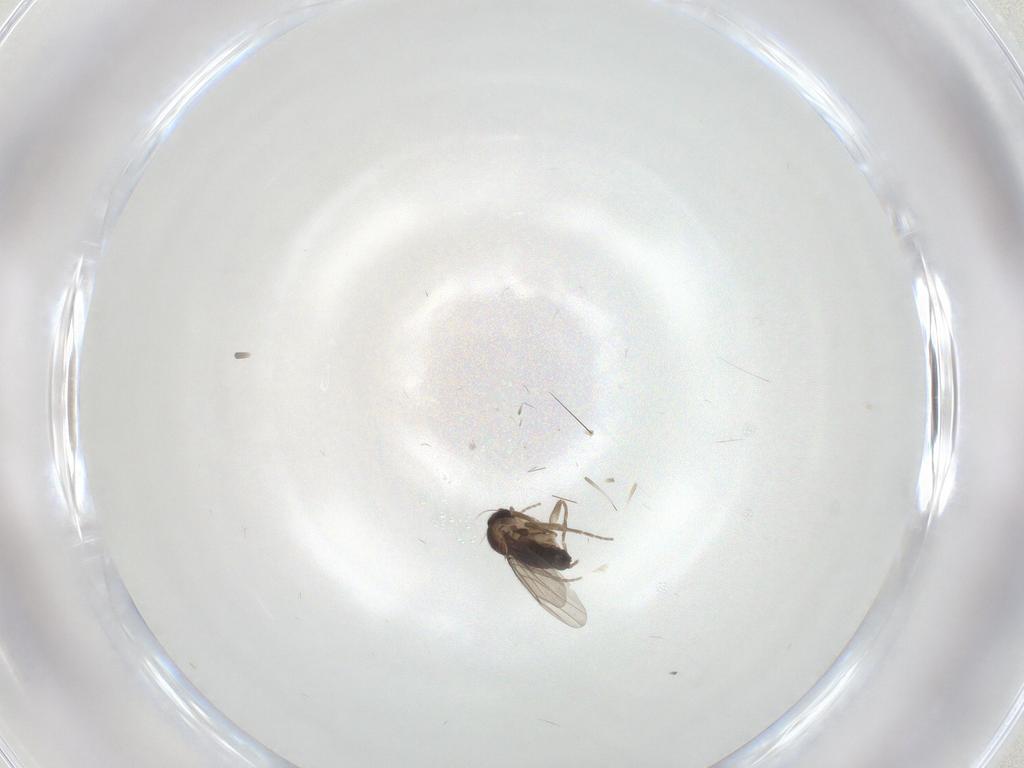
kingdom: Animalia
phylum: Arthropoda
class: Insecta
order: Diptera
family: Phoridae
